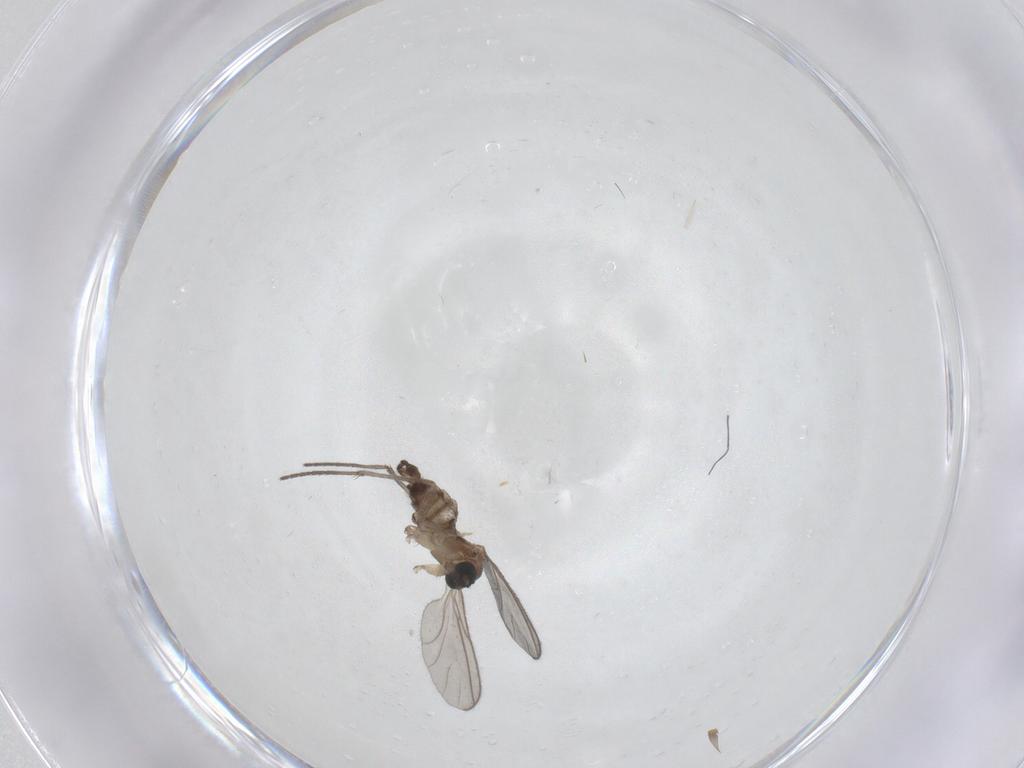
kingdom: Animalia
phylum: Arthropoda
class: Insecta
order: Diptera
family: Sciaridae
